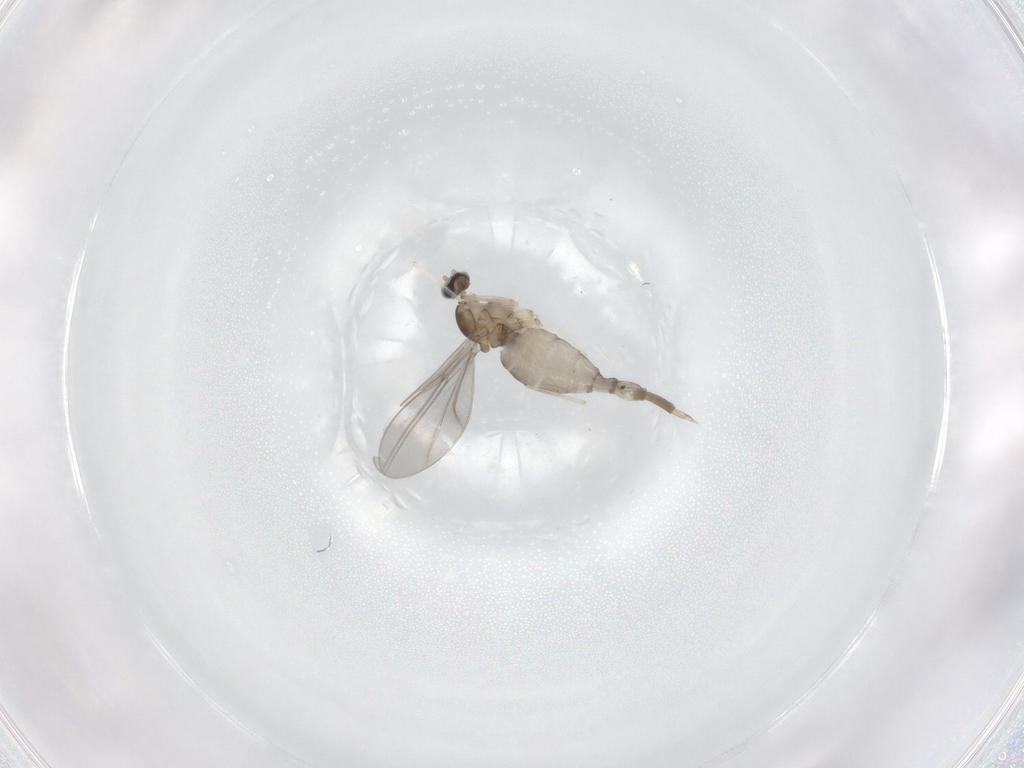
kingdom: Animalia
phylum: Arthropoda
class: Insecta
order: Diptera
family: Cecidomyiidae
